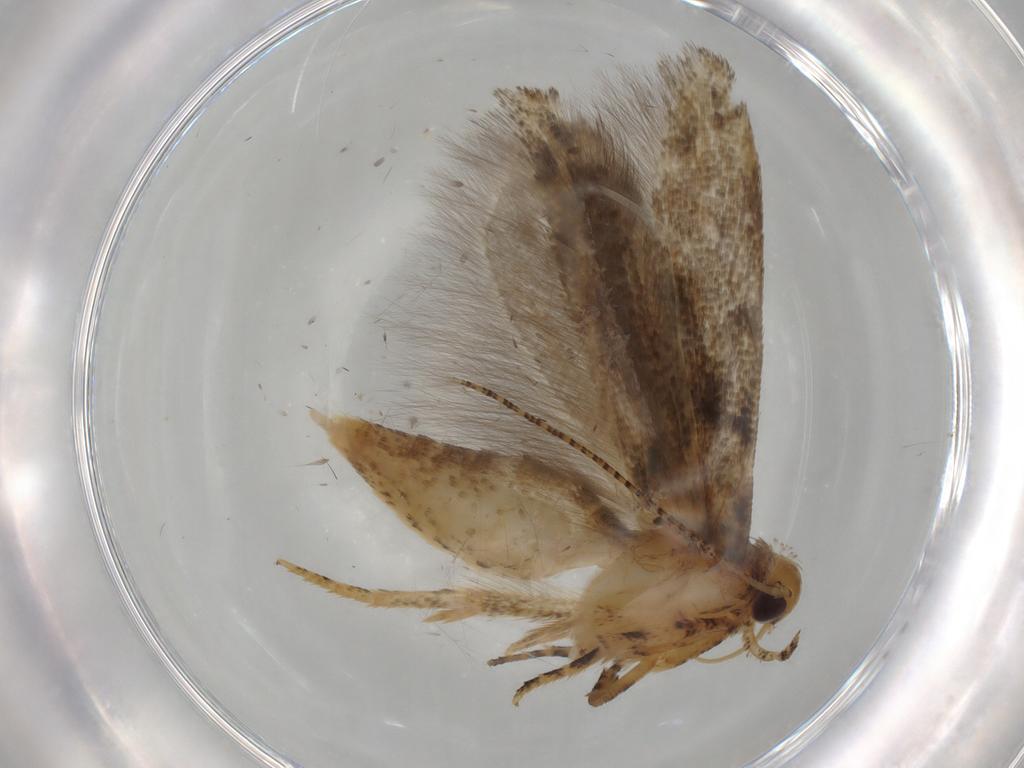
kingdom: Animalia
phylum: Arthropoda
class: Insecta
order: Lepidoptera
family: Gelechiidae
